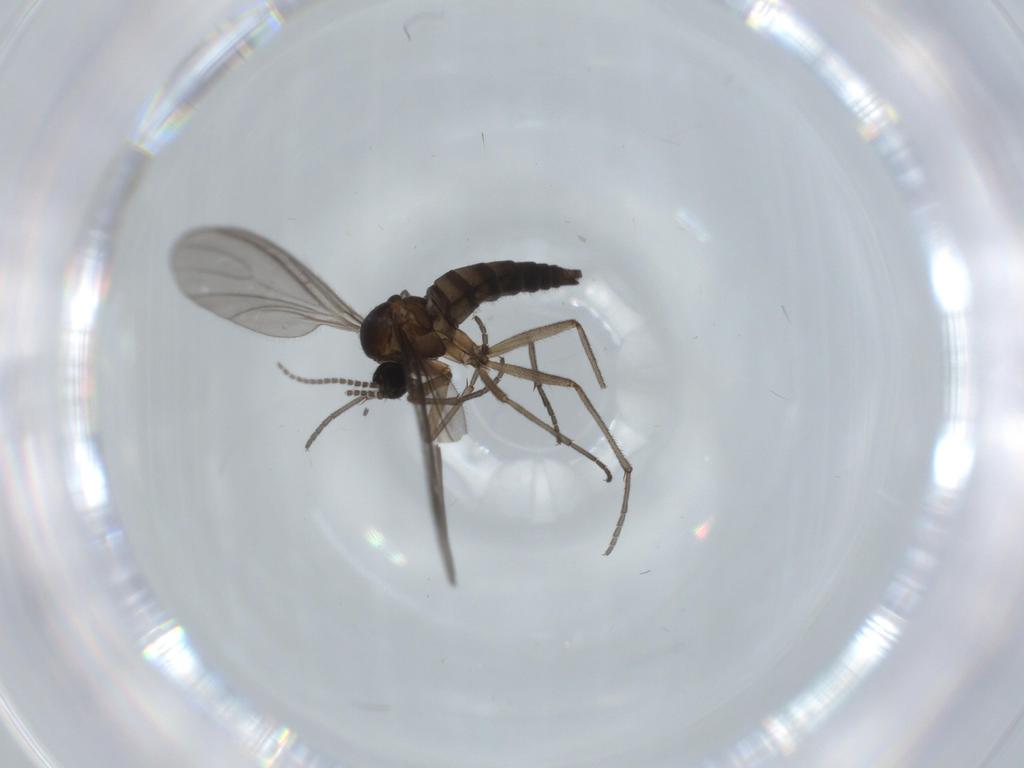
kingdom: Animalia
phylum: Arthropoda
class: Insecta
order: Diptera
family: Sciaridae
